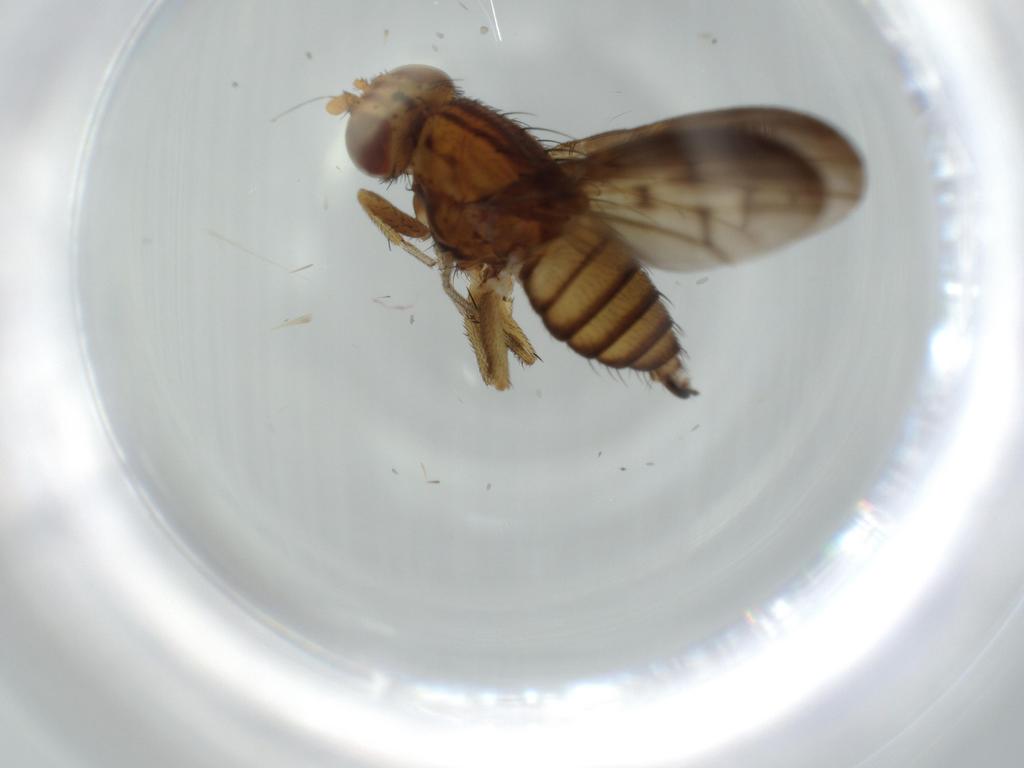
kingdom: Animalia
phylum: Arthropoda
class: Insecta
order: Diptera
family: Lauxaniidae
